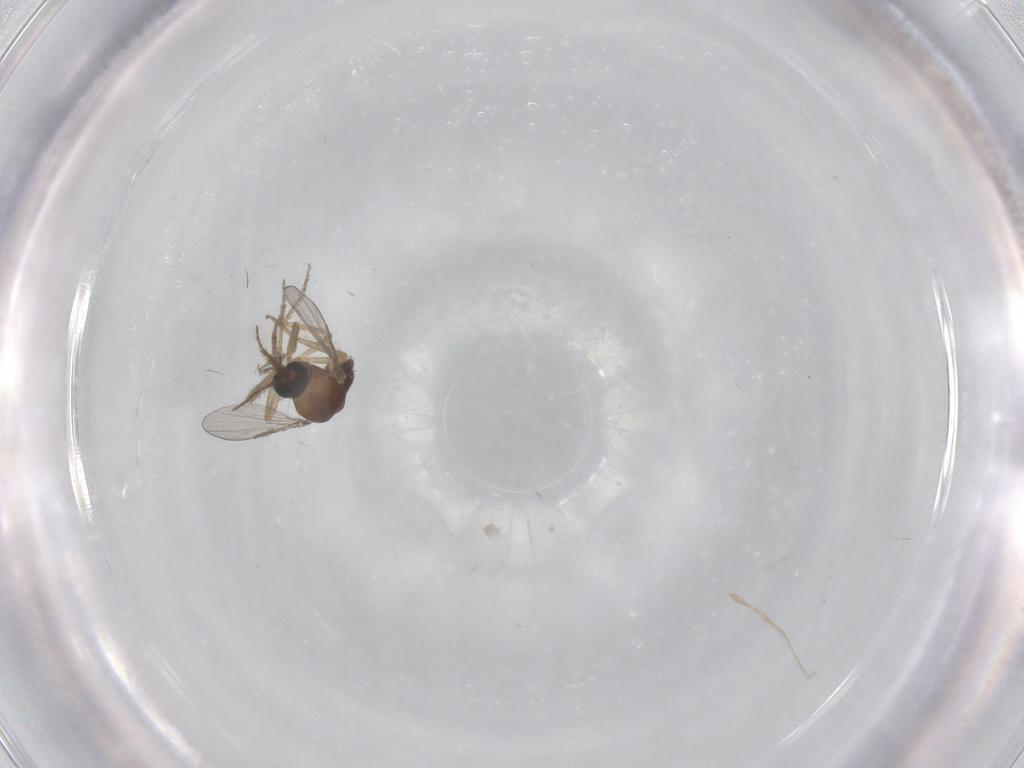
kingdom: Animalia
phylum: Arthropoda
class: Insecta
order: Diptera
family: Ceratopogonidae
